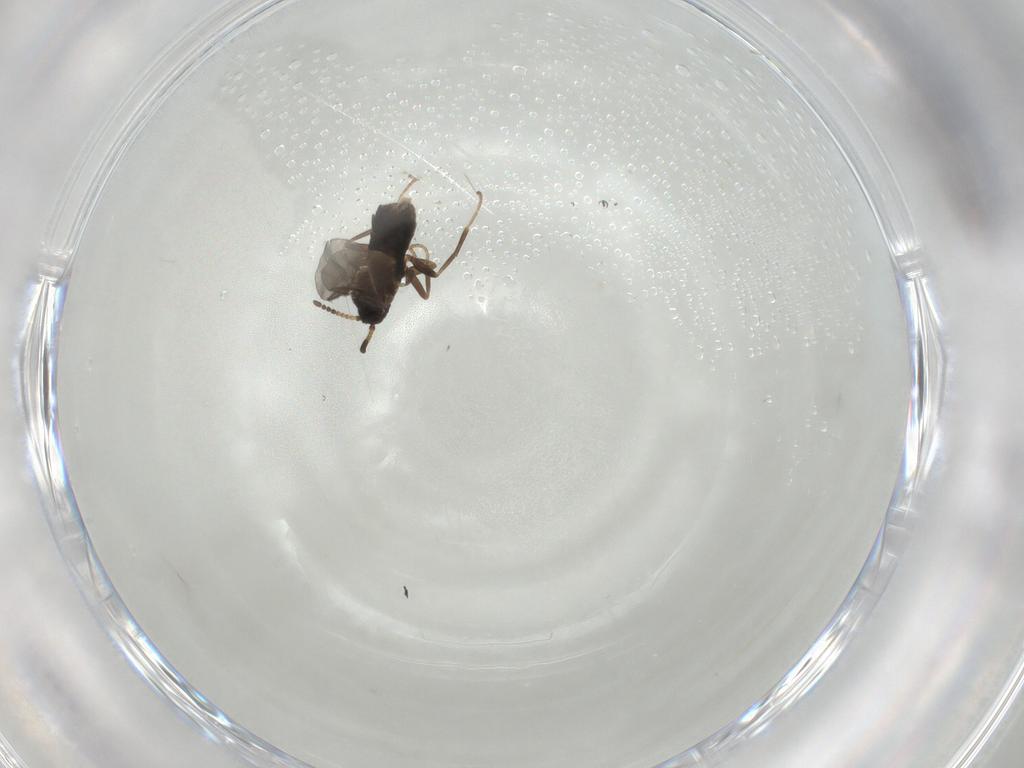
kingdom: Animalia
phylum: Arthropoda
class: Insecta
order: Diptera
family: Scatopsidae
